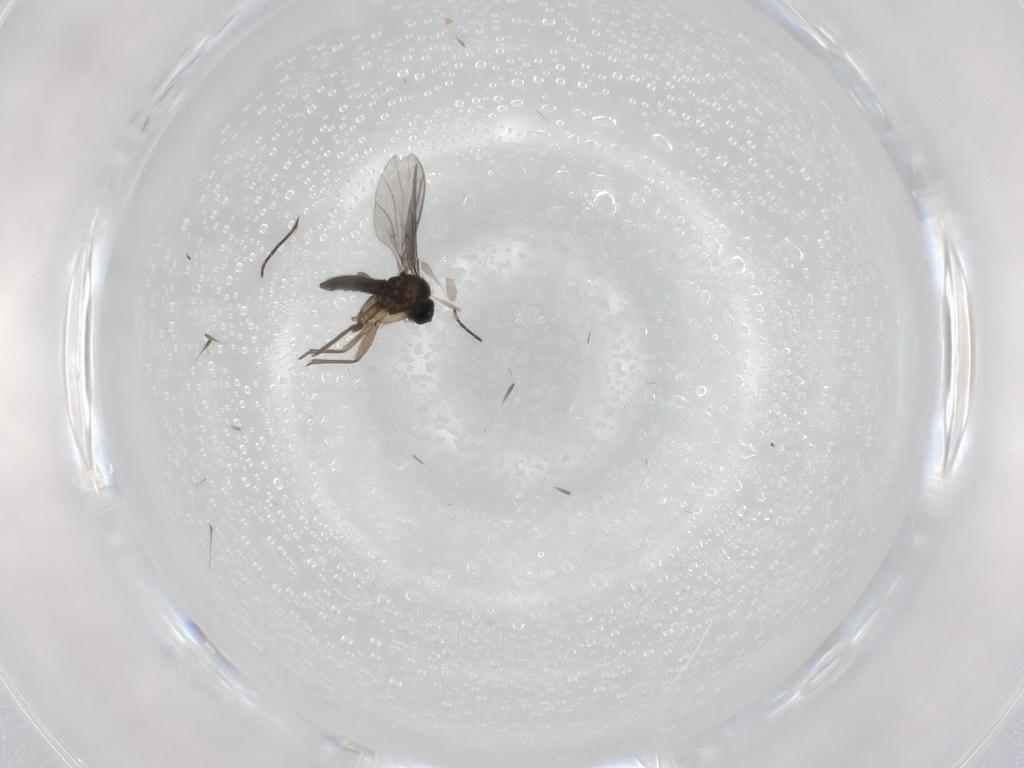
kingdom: Animalia
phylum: Arthropoda
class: Insecta
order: Diptera
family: Sciaridae
